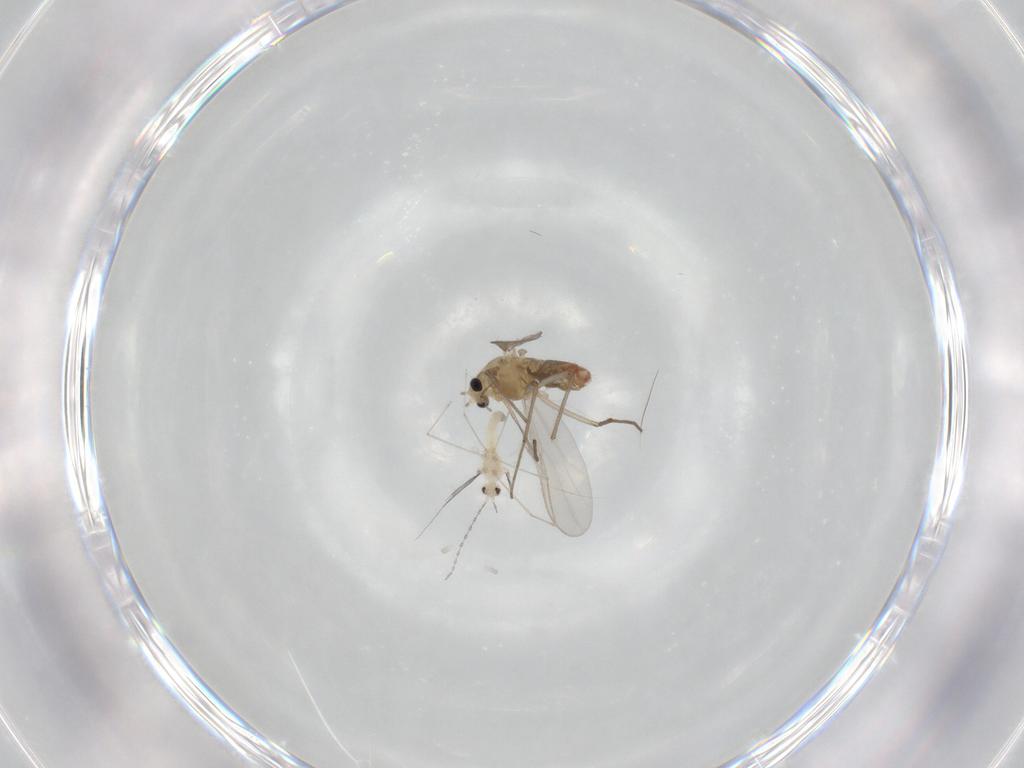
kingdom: Animalia
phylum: Arthropoda
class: Insecta
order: Diptera
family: Chironomidae
